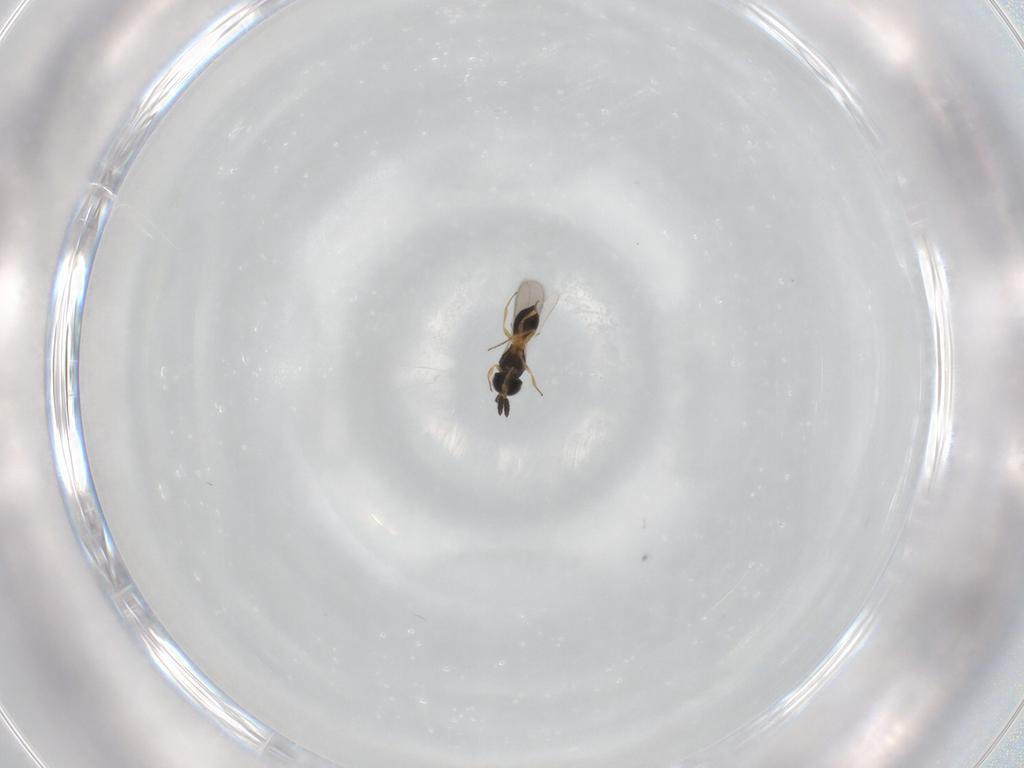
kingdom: Animalia
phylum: Arthropoda
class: Insecta
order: Hymenoptera
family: Scelionidae
